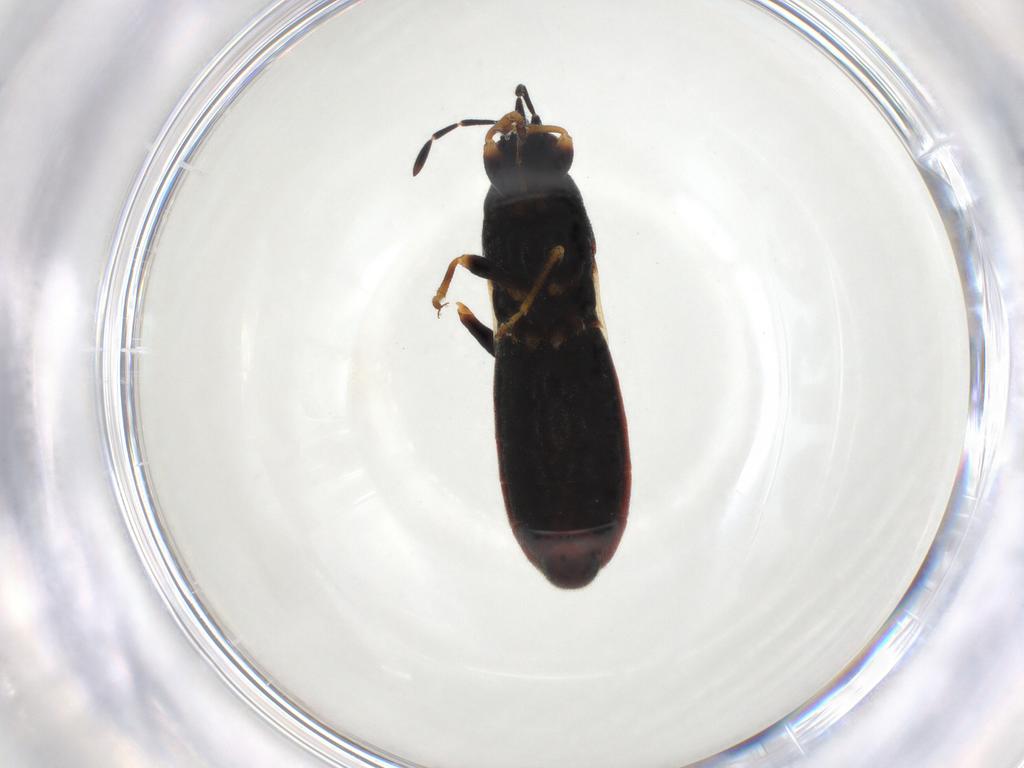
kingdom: Animalia
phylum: Arthropoda
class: Insecta
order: Hemiptera
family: Blissidae
